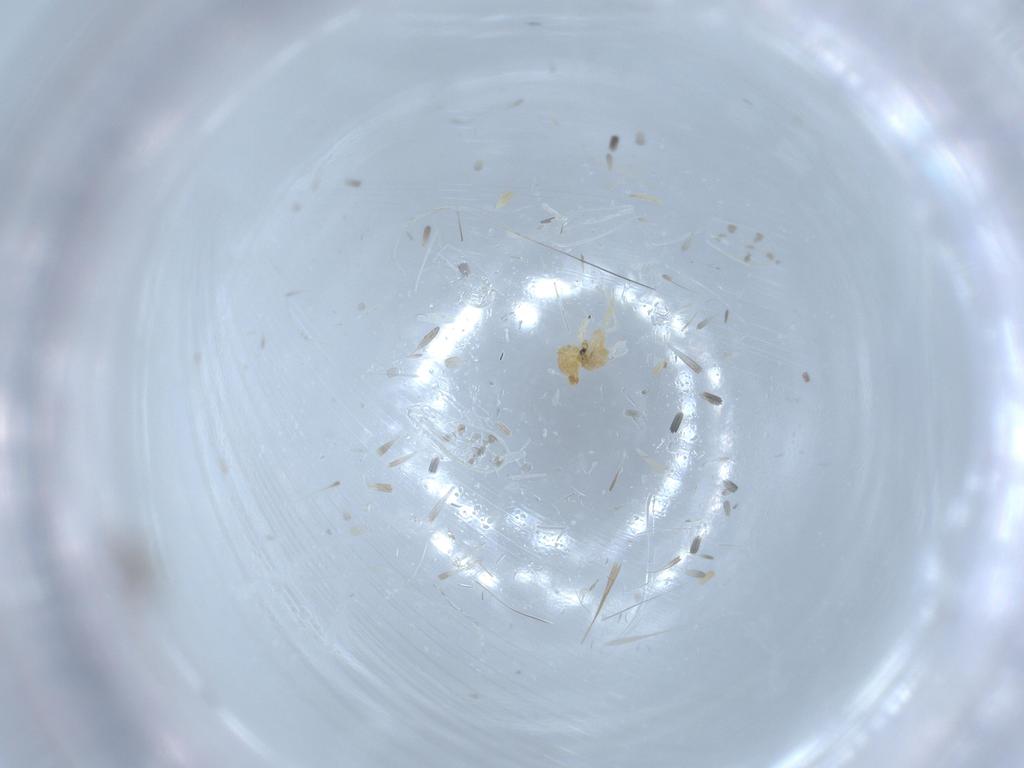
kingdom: Animalia
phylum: Arthropoda
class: Insecta
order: Hemiptera
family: Aleyrodidae
